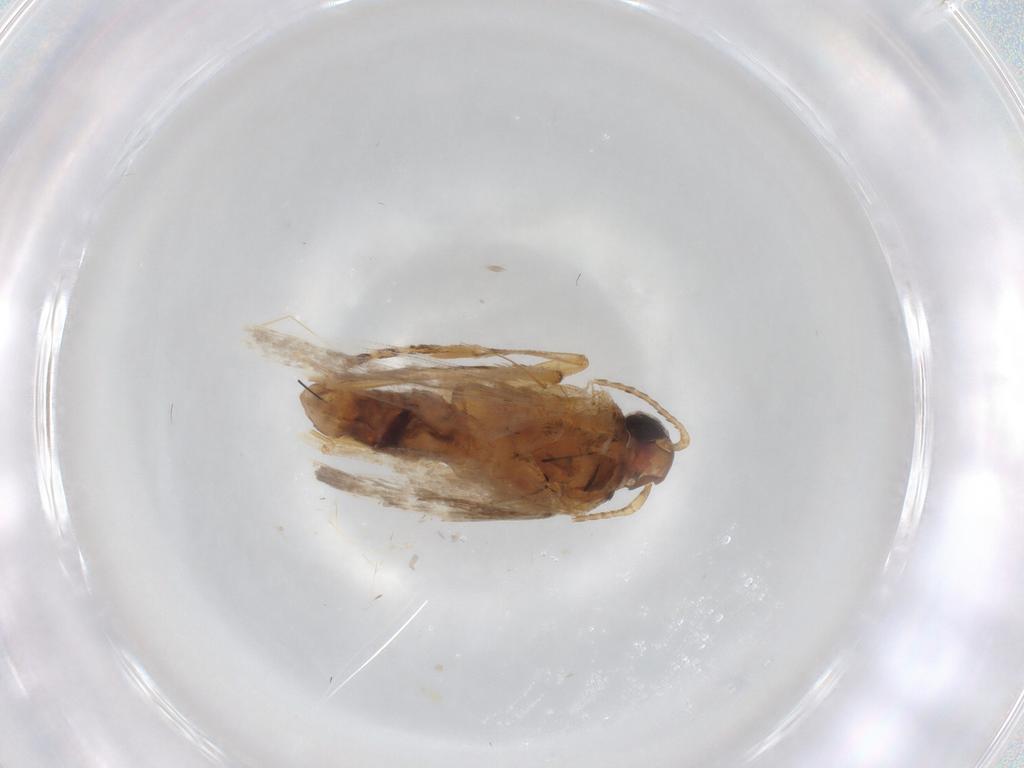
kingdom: Animalia
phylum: Arthropoda
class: Insecta
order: Lepidoptera
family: Gelechiidae
